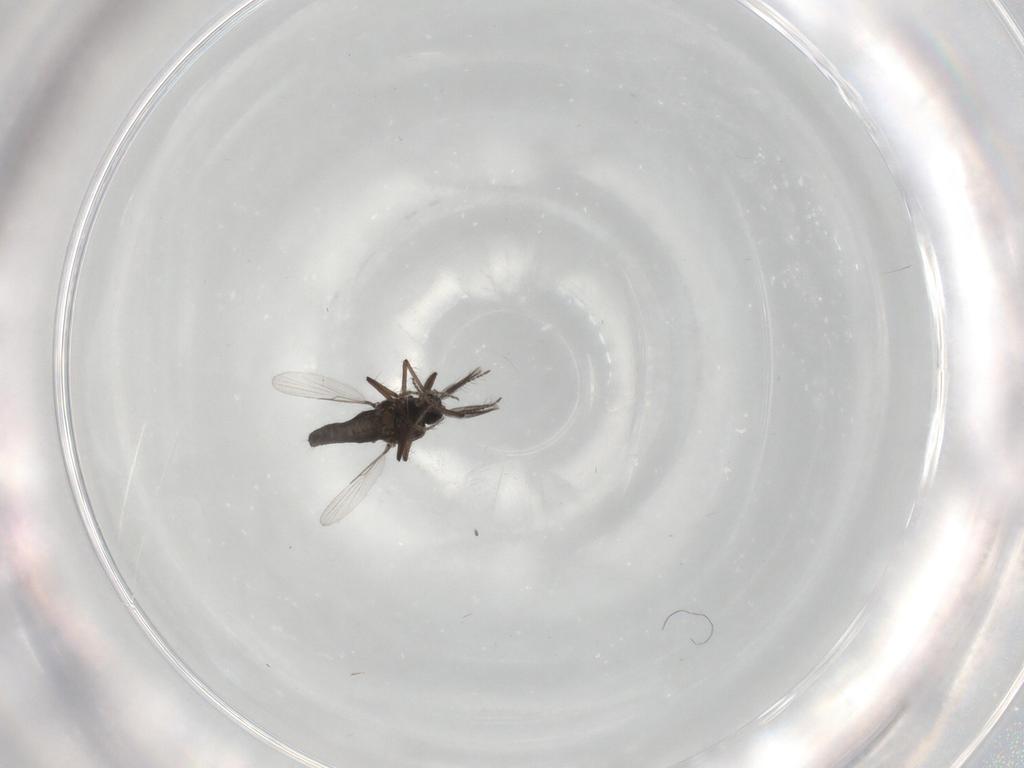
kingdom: Animalia
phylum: Arthropoda
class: Insecta
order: Diptera
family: Ceratopogonidae
